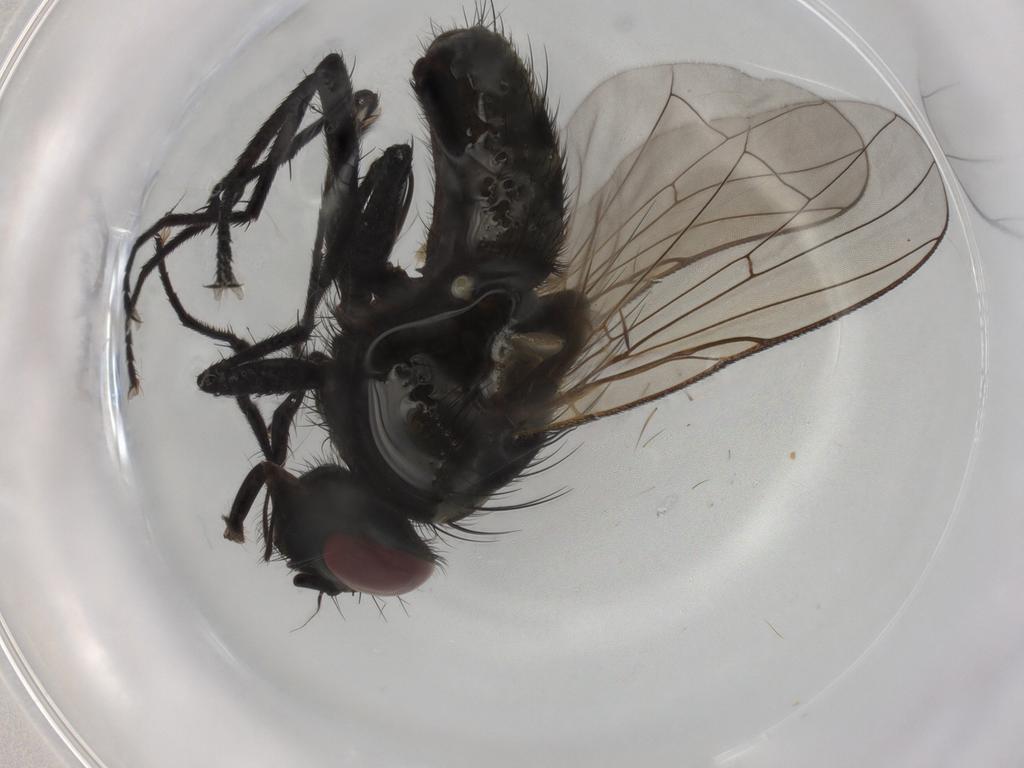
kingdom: Animalia
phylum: Arthropoda
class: Insecta
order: Diptera
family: Muscidae
